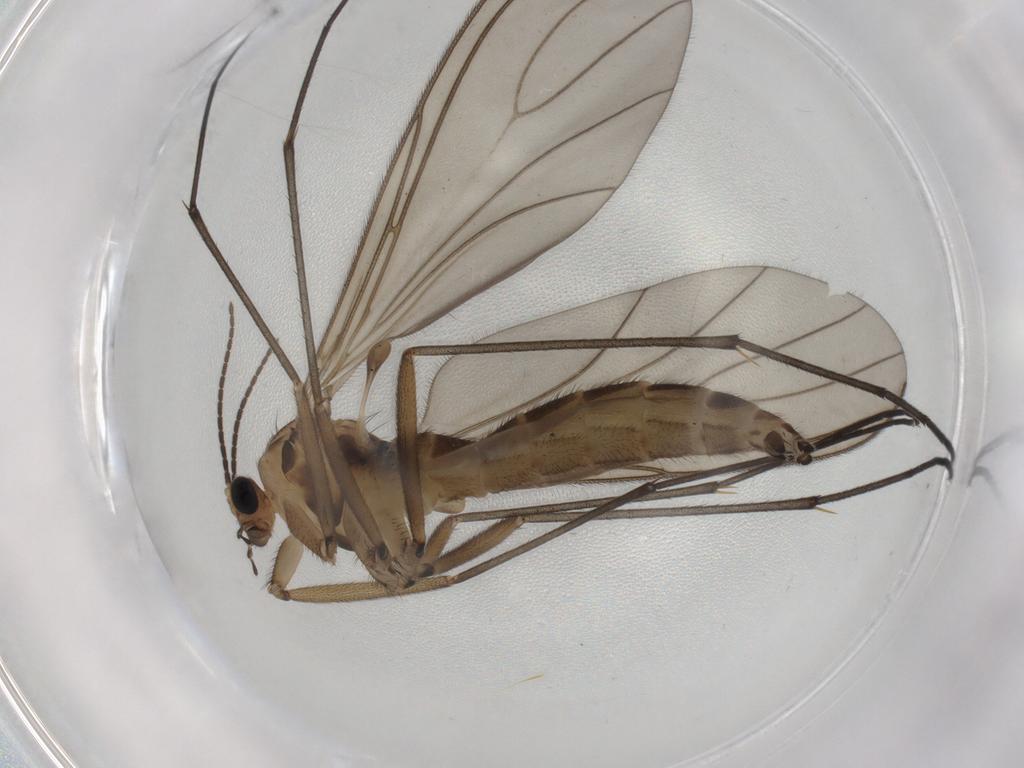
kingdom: Animalia
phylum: Arthropoda
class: Insecta
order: Diptera
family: Sciaridae
